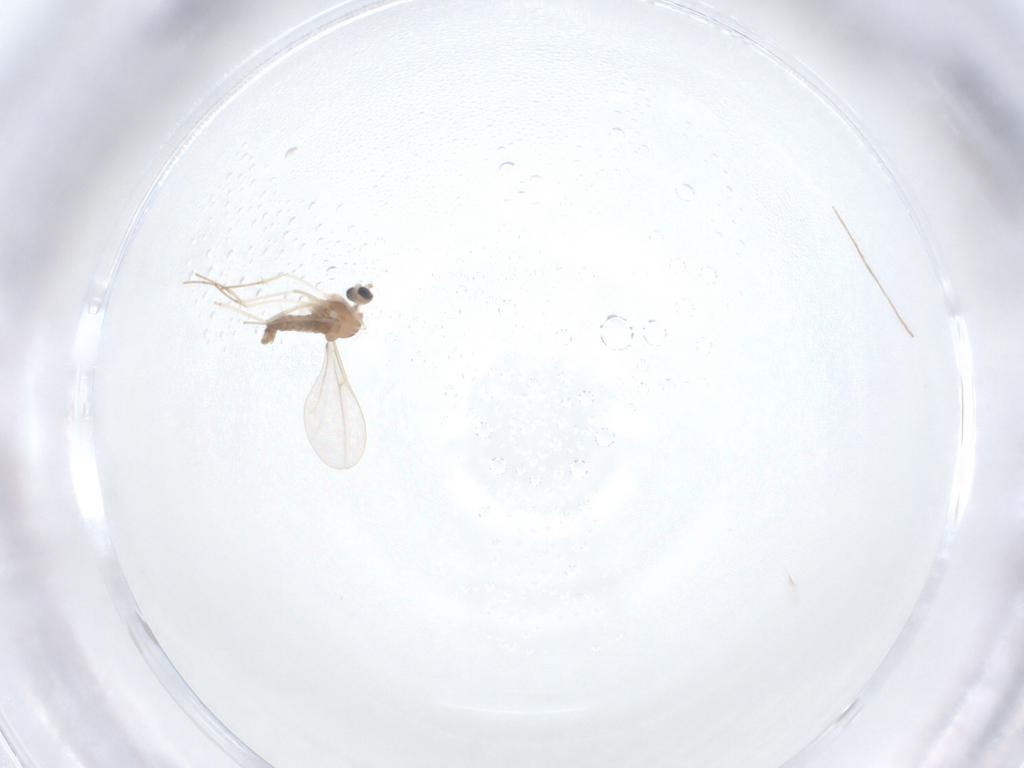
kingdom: Animalia
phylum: Arthropoda
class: Insecta
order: Diptera
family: Cecidomyiidae
